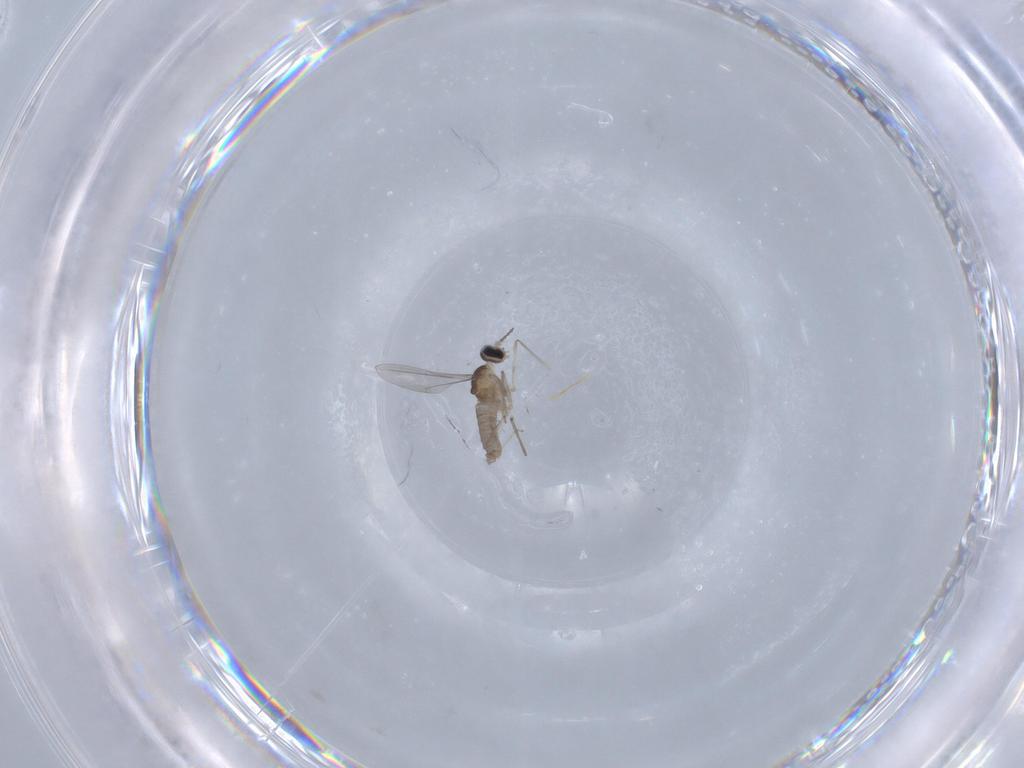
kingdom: Animalia
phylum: Arthropoda
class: Insecta
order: Diptera
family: Cecidomyiidae
